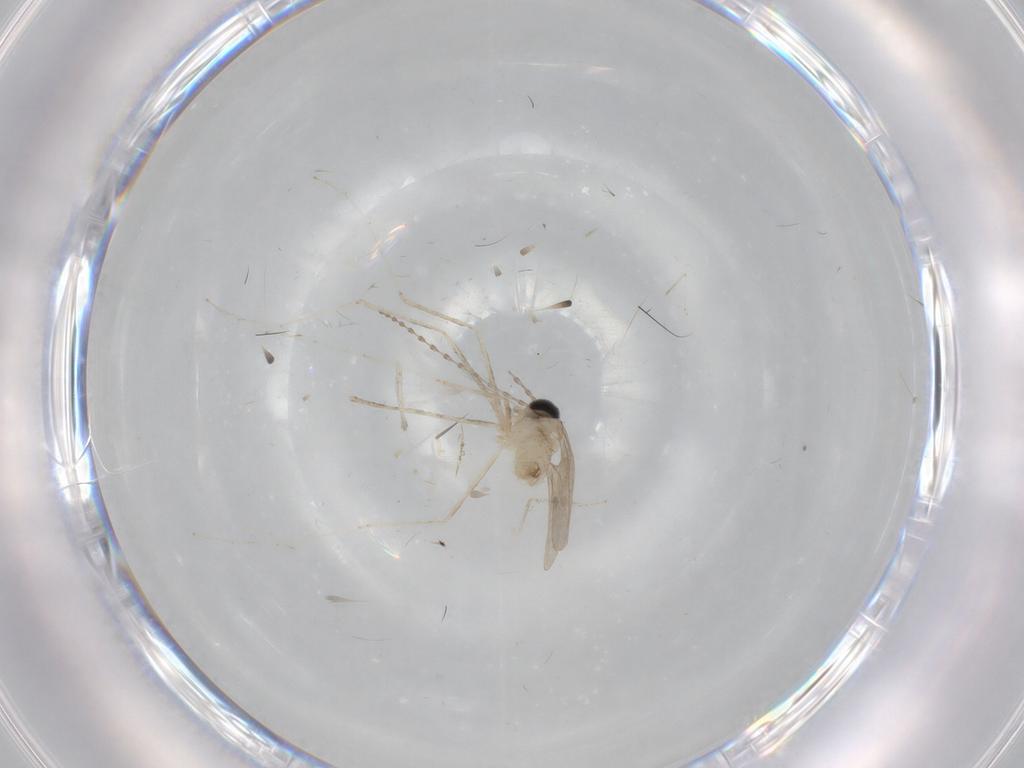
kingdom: Animalia
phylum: Arthropoda
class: Insecta
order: Diptera
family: Cecidomyiidae
